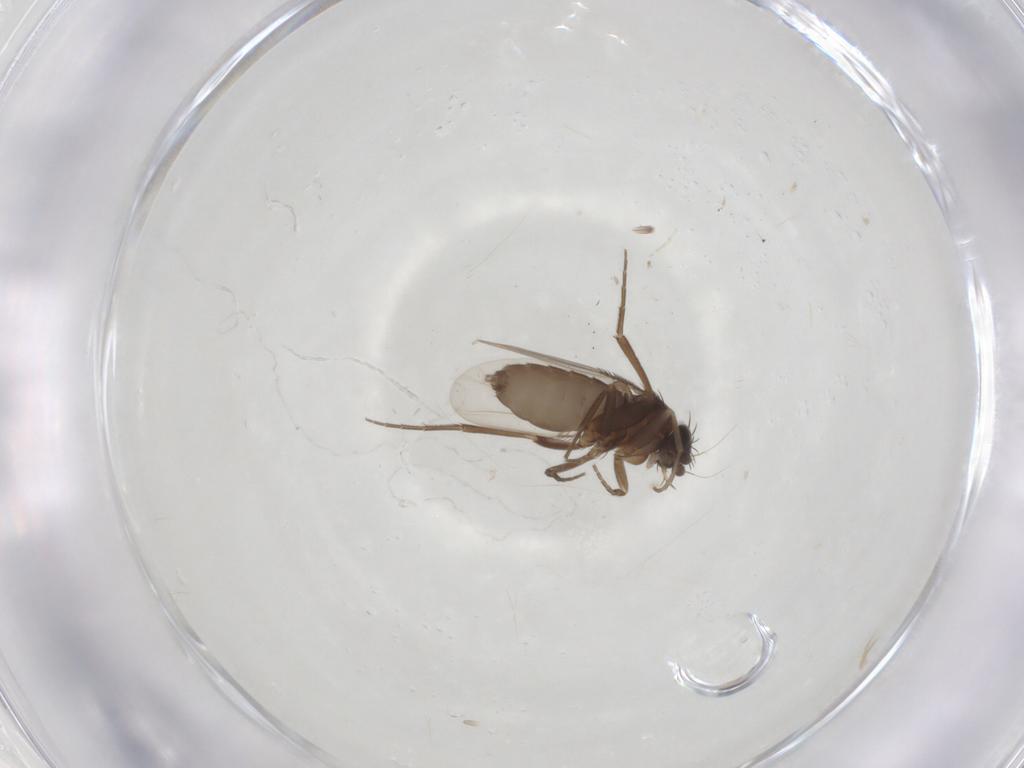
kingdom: Animalia
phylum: Arthropoda
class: Insecta
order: Diptera
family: Phoridae
